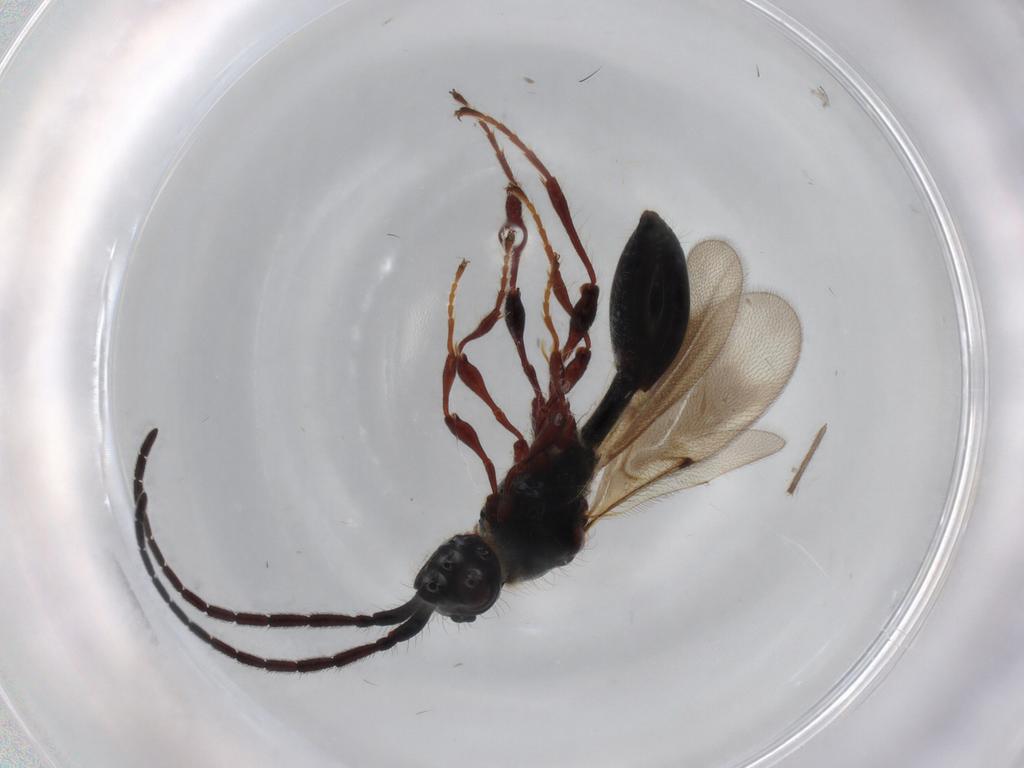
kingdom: Animalia
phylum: Arthropoda
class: Insecta
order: Hymenoptera
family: Diapriidae
